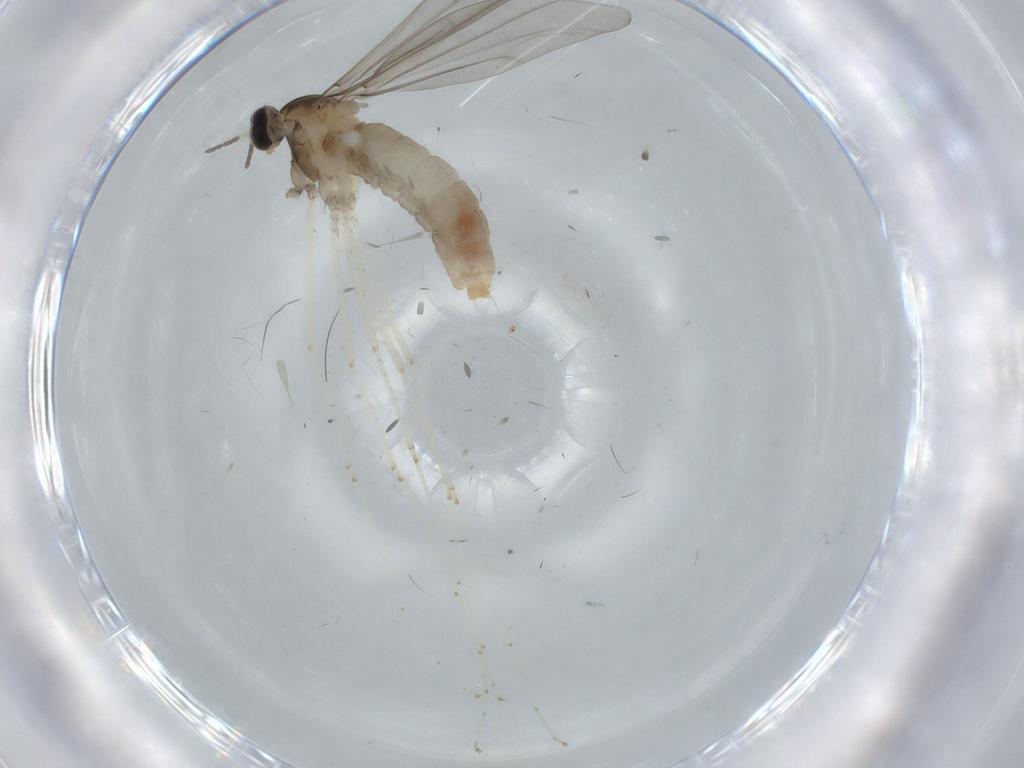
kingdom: Animalia
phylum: Arthropoda
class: Insecta
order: Diptera
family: Cecidomyiidae
